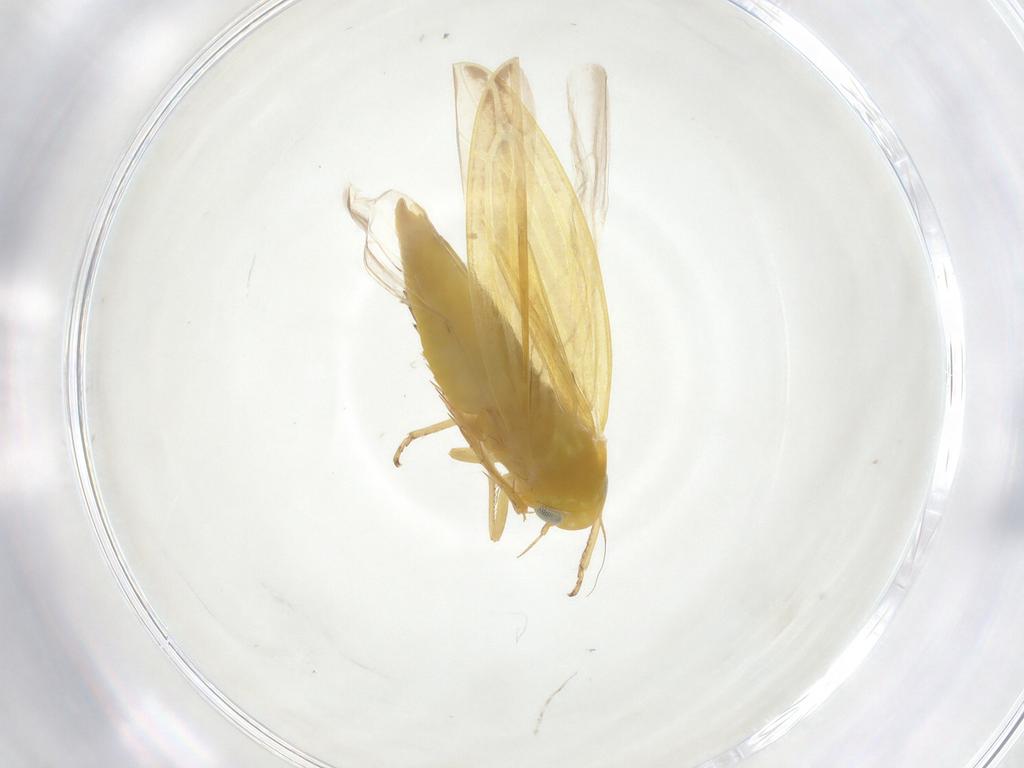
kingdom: Animalia
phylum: Arthropoda
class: Insecta
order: Hemiptera
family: Cicadellidae
